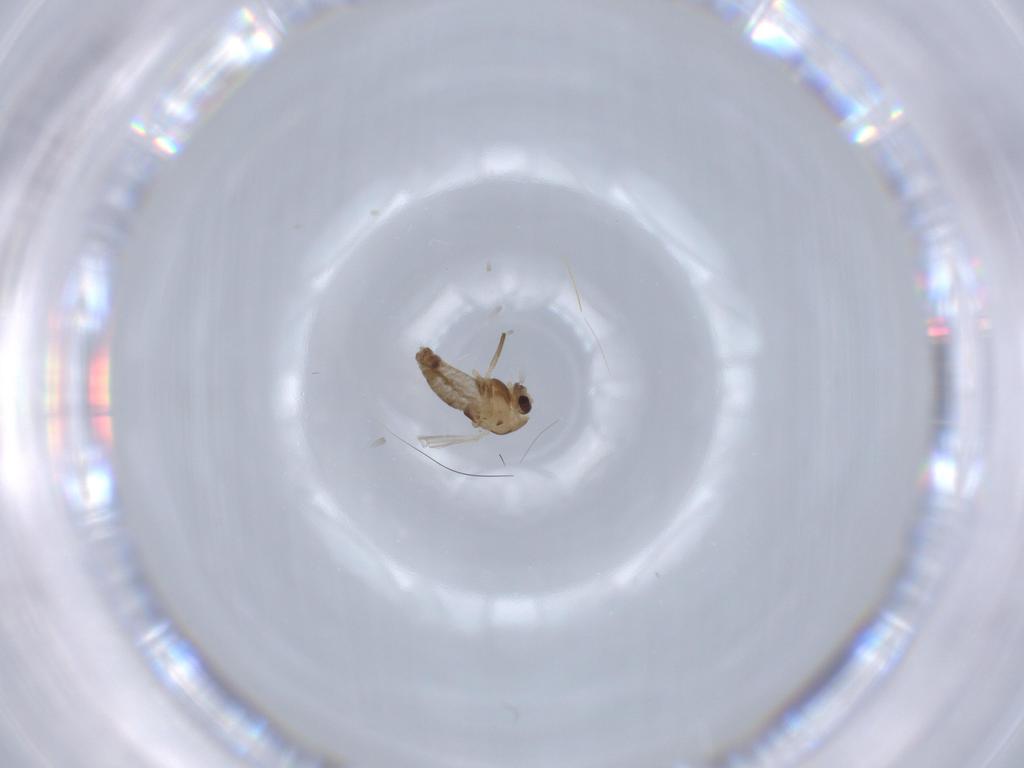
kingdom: Animalia
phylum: Arthropoda
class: Insecta
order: Diptera
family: Chironomidae
